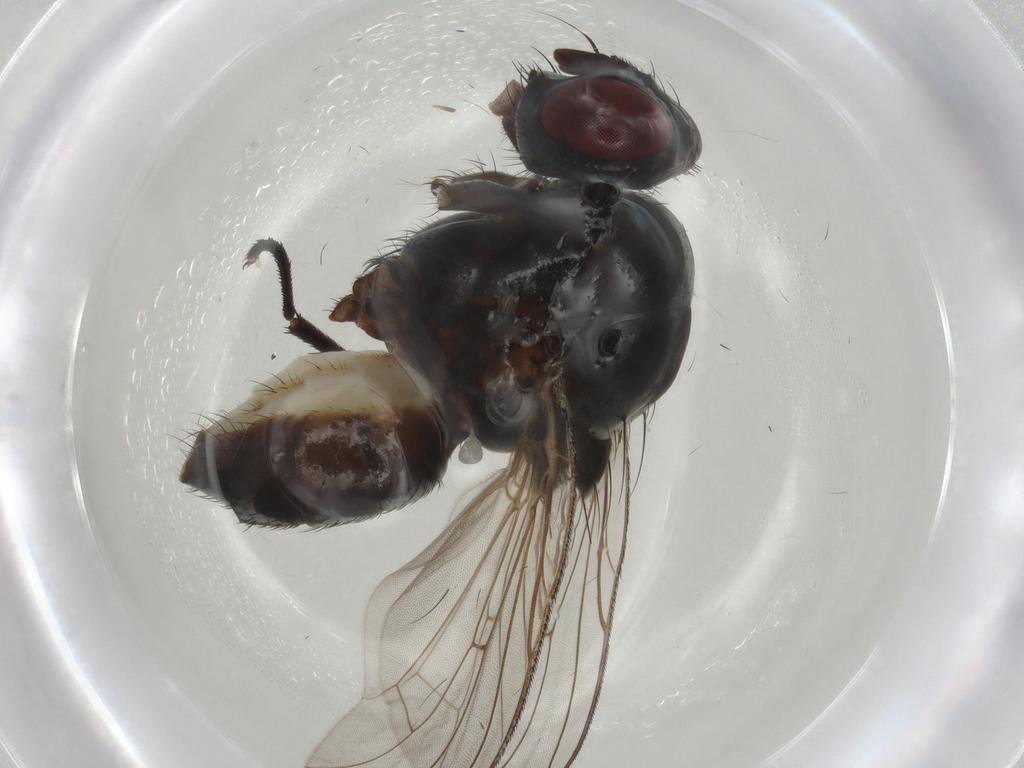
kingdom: Animalia
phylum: Arthropoda
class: Insecta
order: Diptera
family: Anthomyiidae
